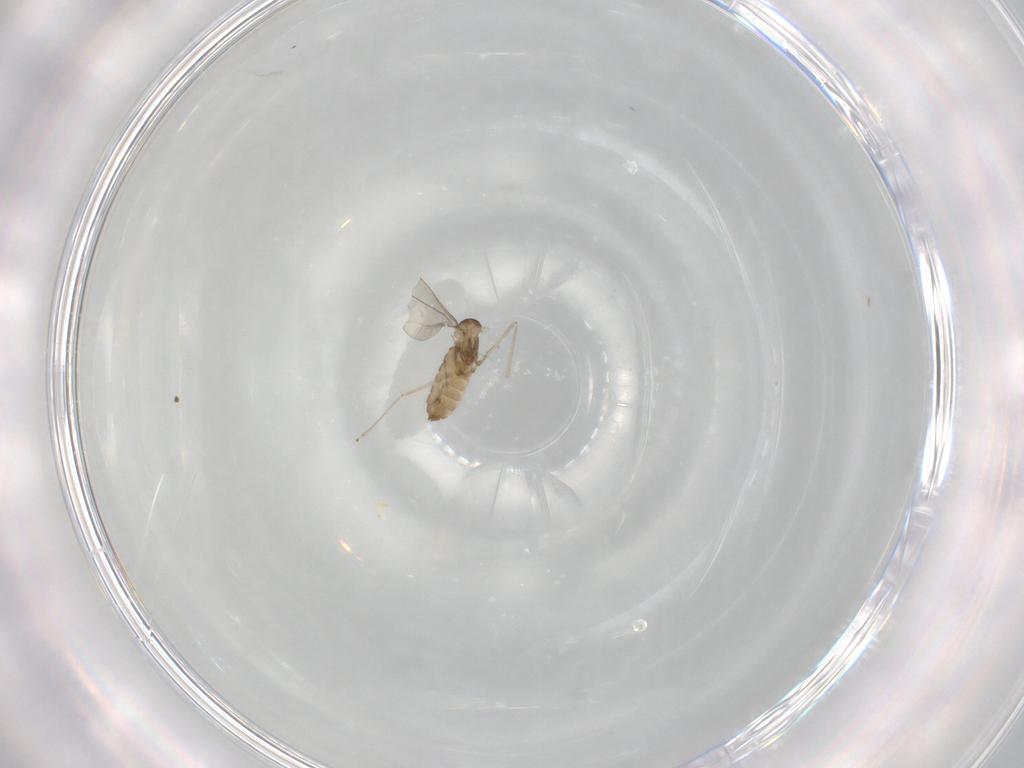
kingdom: Animalia
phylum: Arthropoda
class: Insecta
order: Diptera
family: Cecidomyiidae
